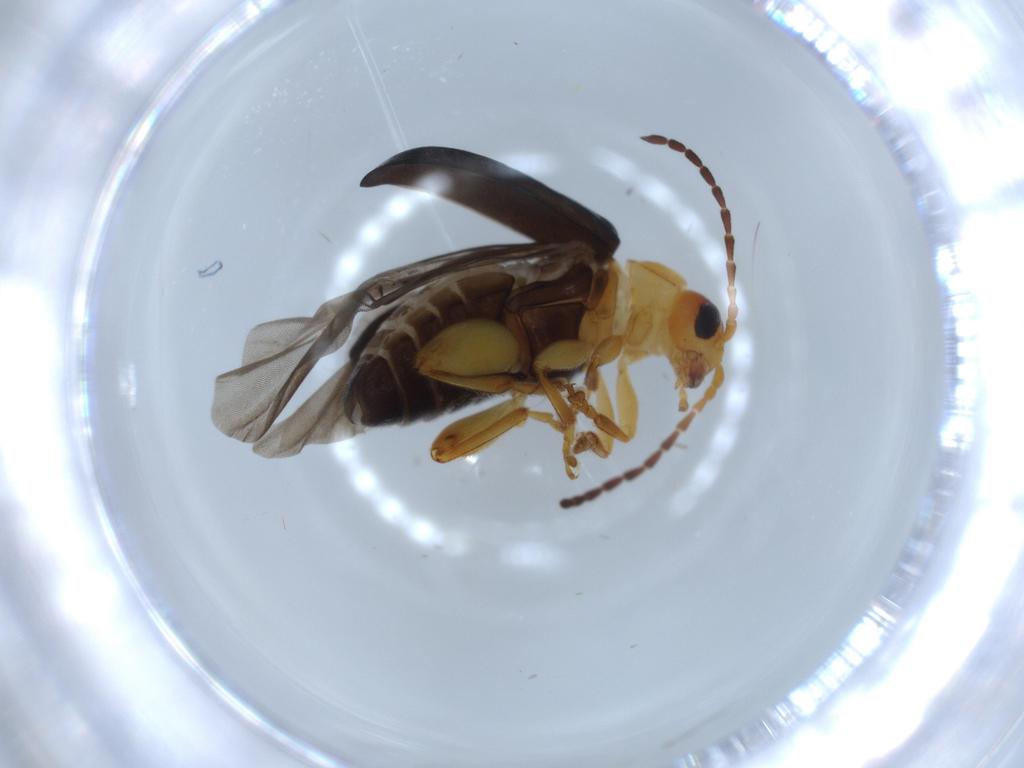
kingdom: Animalia
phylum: Arthropoda
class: Insecta
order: Coleoptera
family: Chrysomelidae
